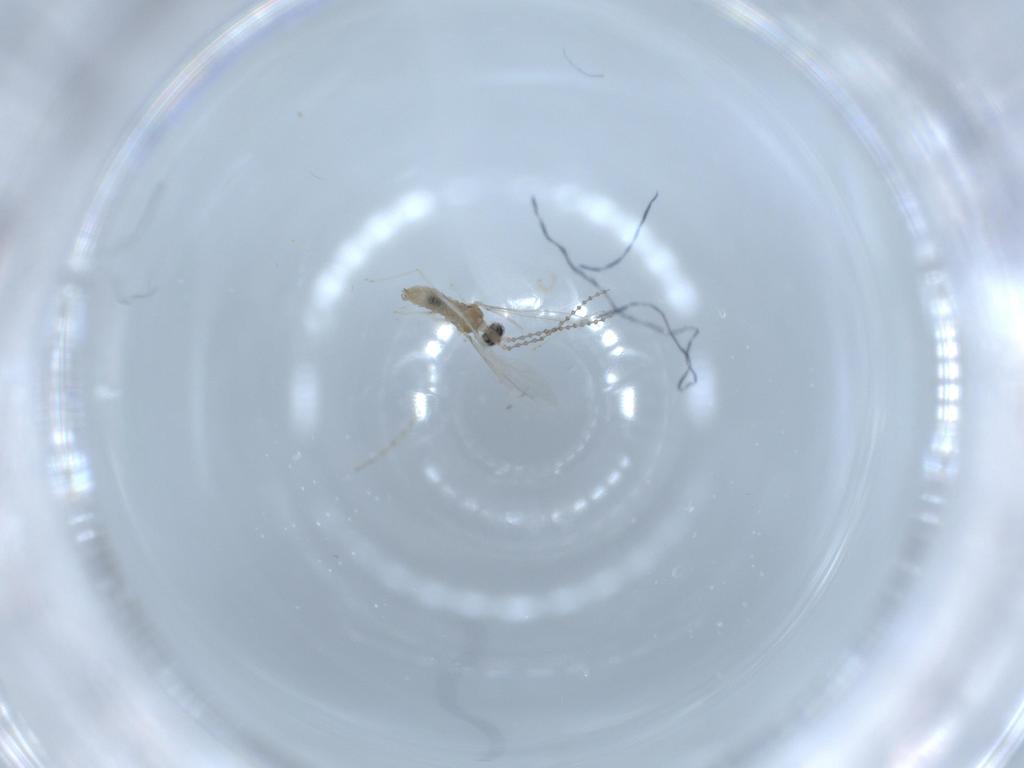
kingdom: Animalia
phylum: Arthropoda
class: Insecta
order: Diptera
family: Cecidomyiidae
